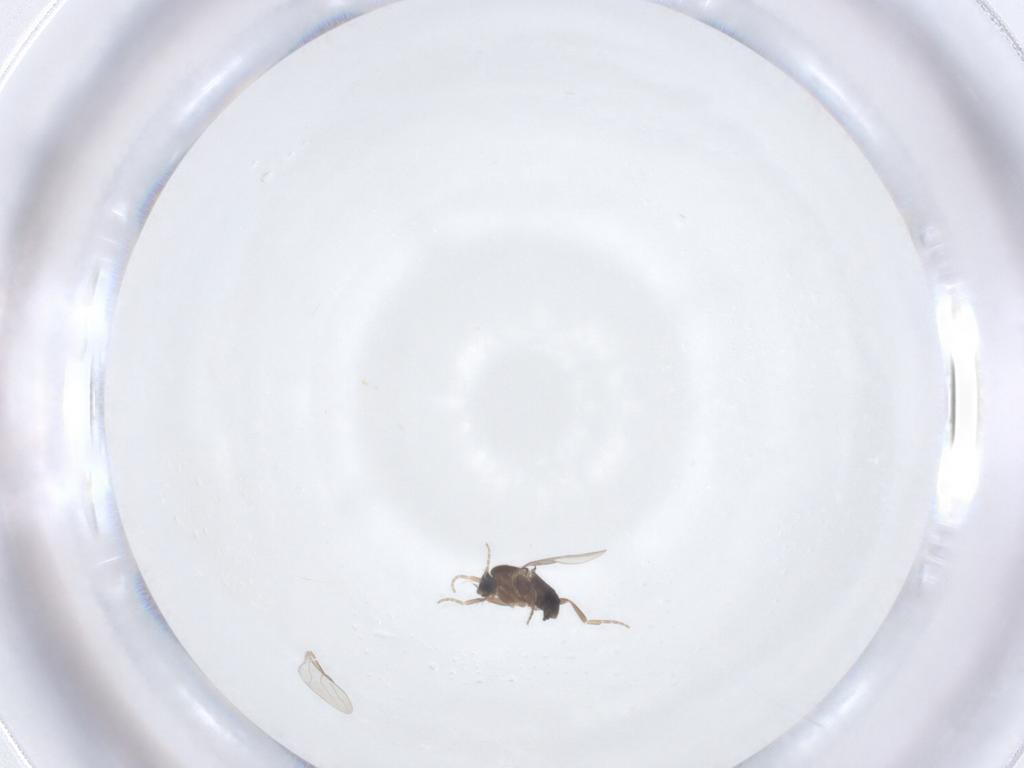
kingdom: Animalia
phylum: Arthropoda
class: Insecta
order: Diptera
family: Phoridae
